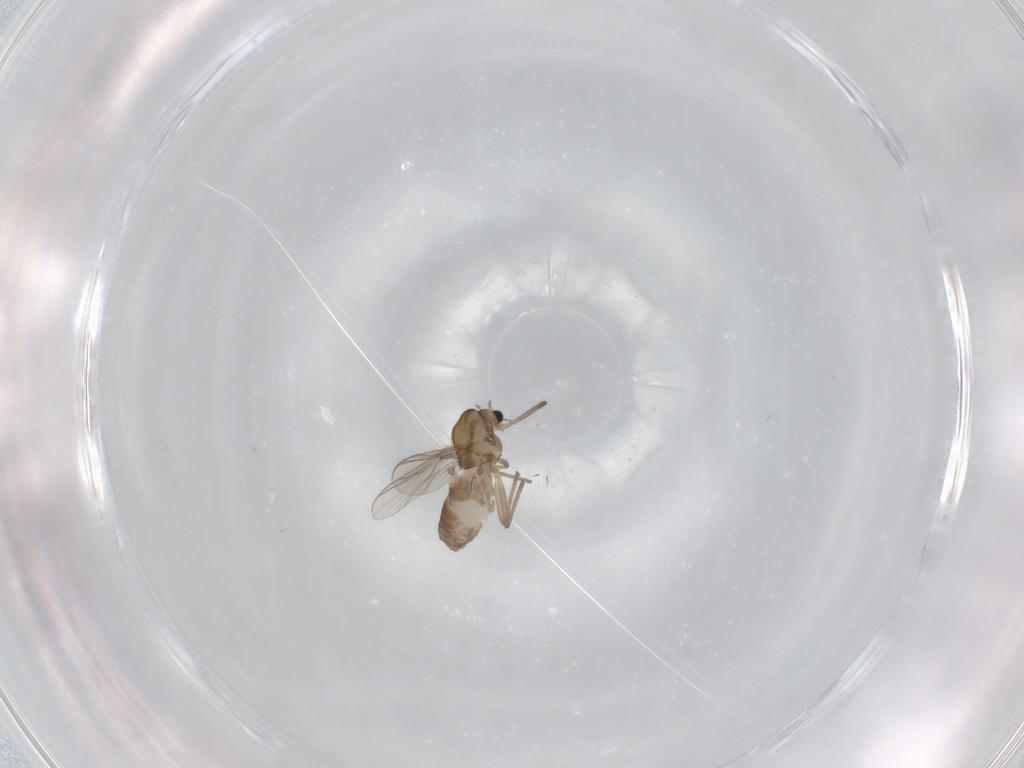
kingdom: Animalia
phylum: Arthropoda
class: Insecta
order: Diptera
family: Chironomidae
